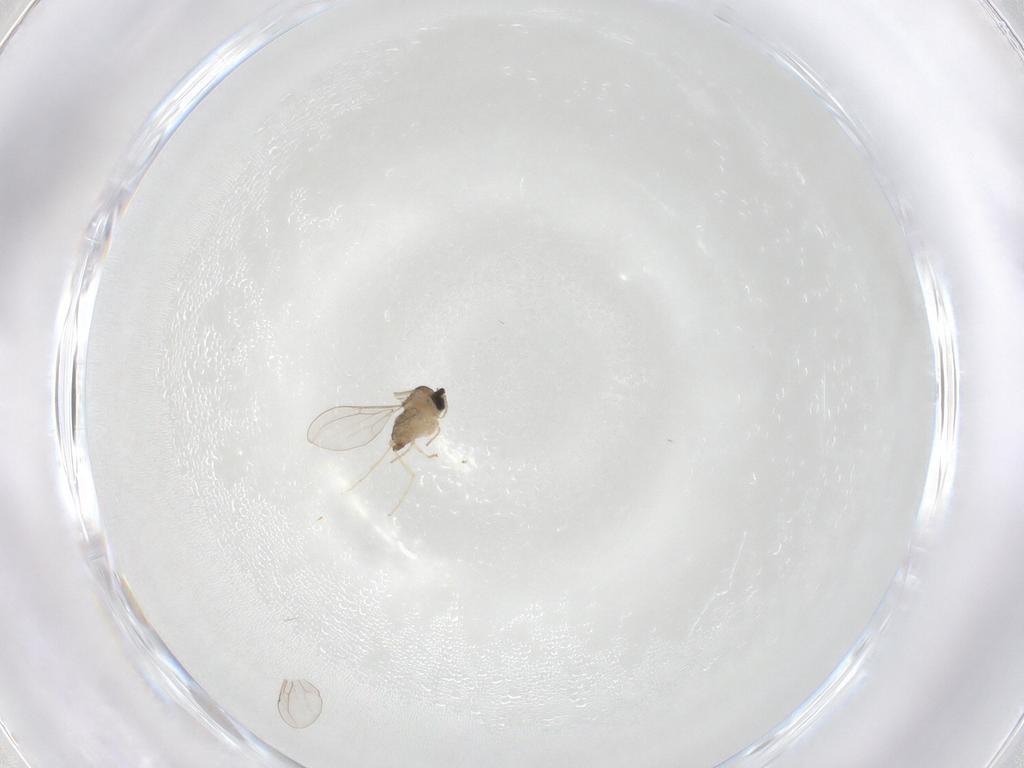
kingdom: Animalia
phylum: Arthropoda
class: Insecta
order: Diptera
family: Cecidomyiidae
